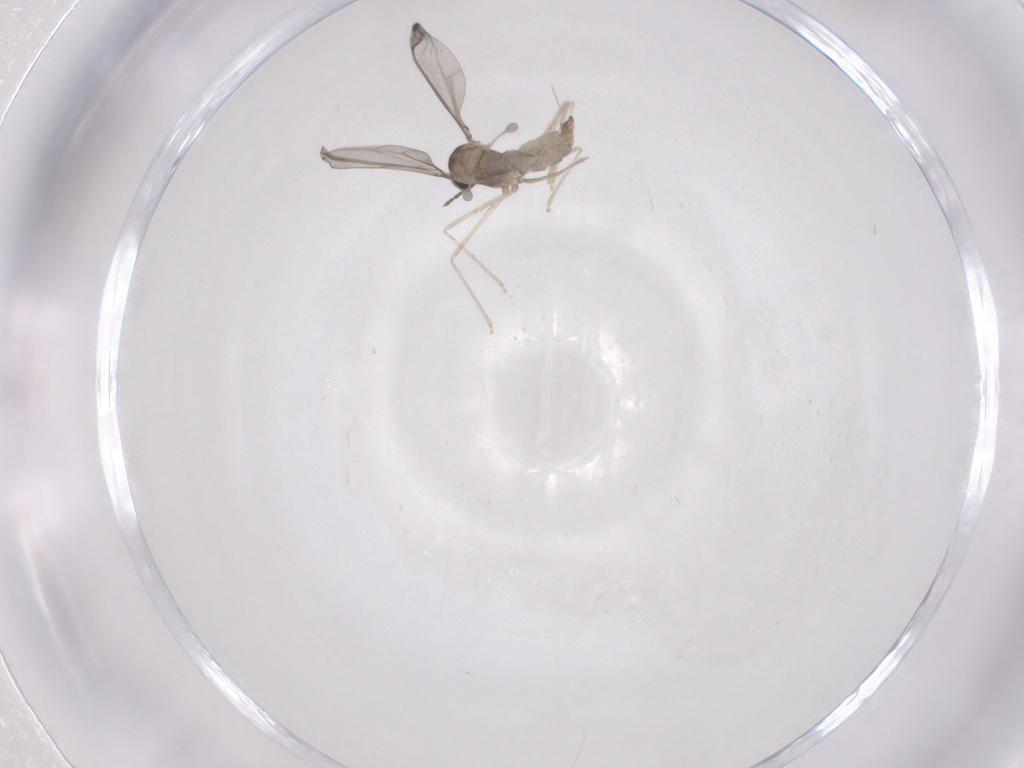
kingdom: Animalia
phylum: Arthropoda
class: Insecta
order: Diptera
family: Cecidomyiidae
